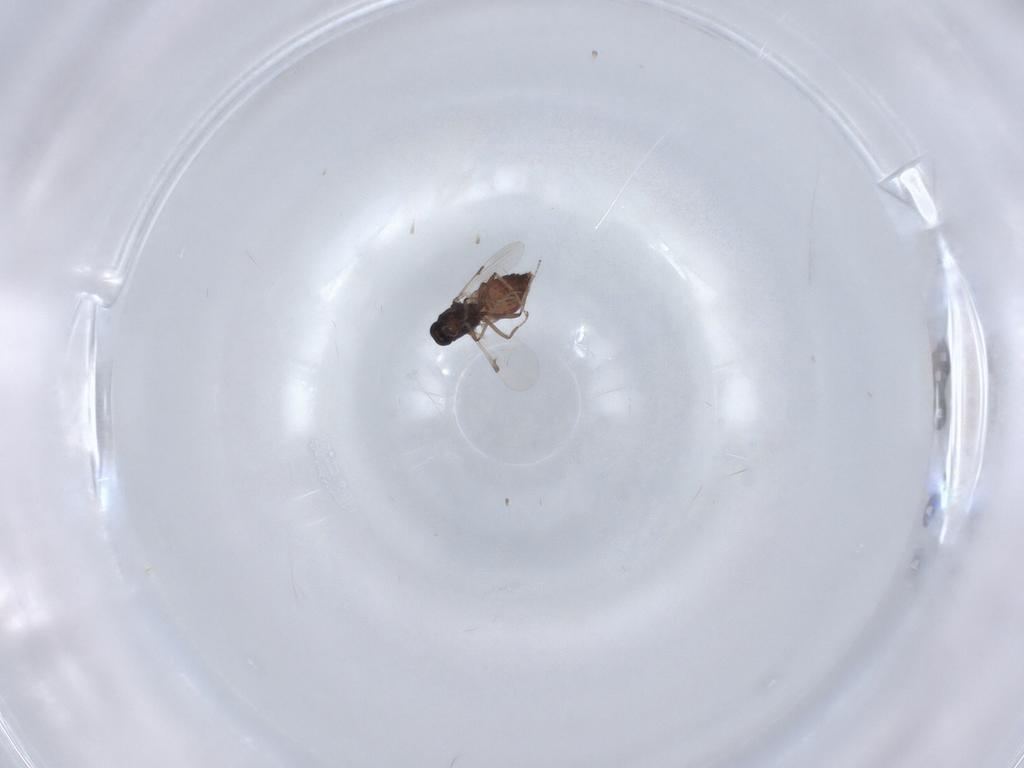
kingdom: Animalia
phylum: Arthropoda
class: Insecta
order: Diptera
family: Ceratopogonidae
